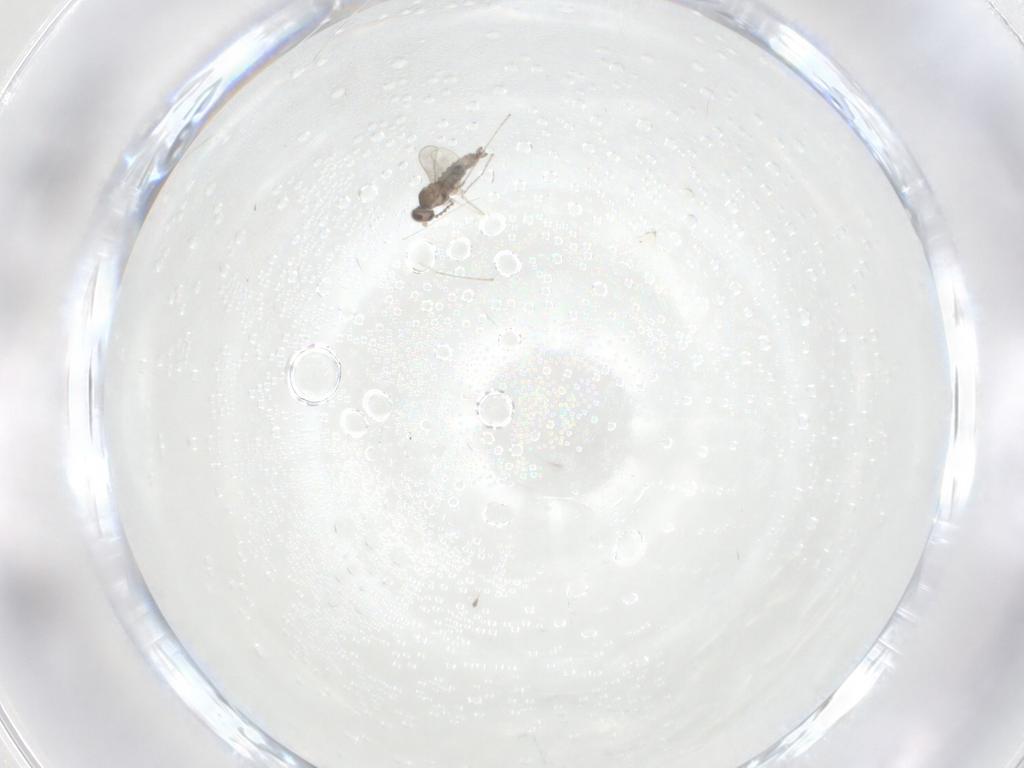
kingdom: Animalia
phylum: Arthropoda
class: Insecta
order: Diptera
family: Cecidomyiidae
